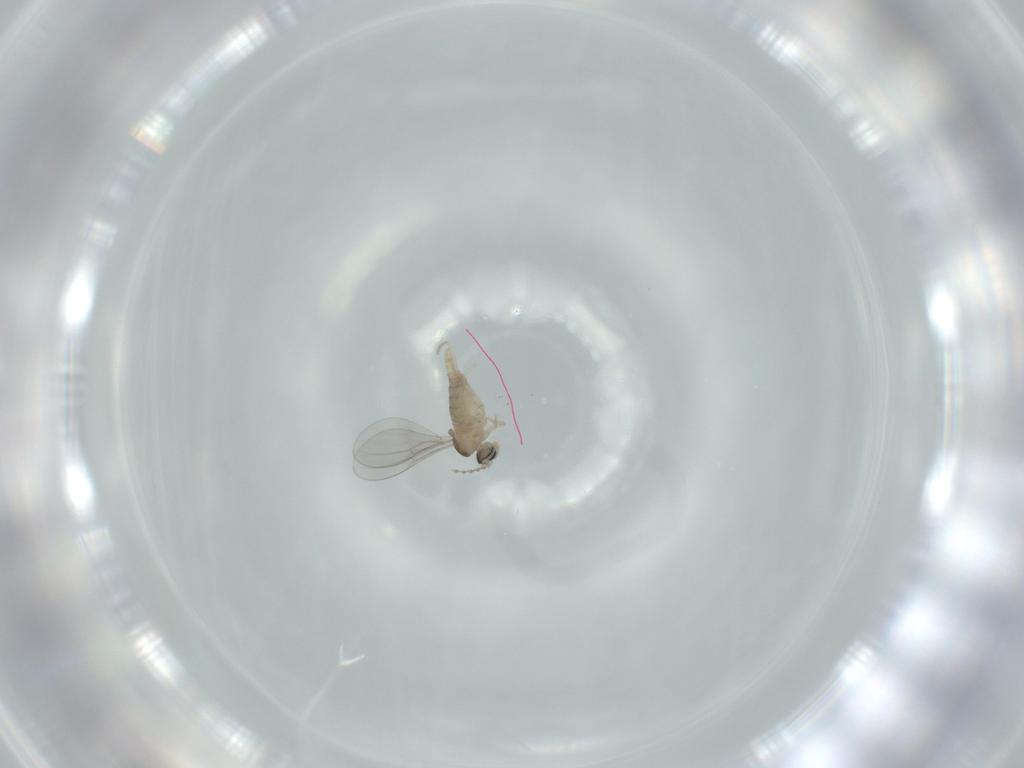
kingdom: Animalia
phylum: Arthropoda
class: Insecta
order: Diptera
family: Cecidomyiidae
